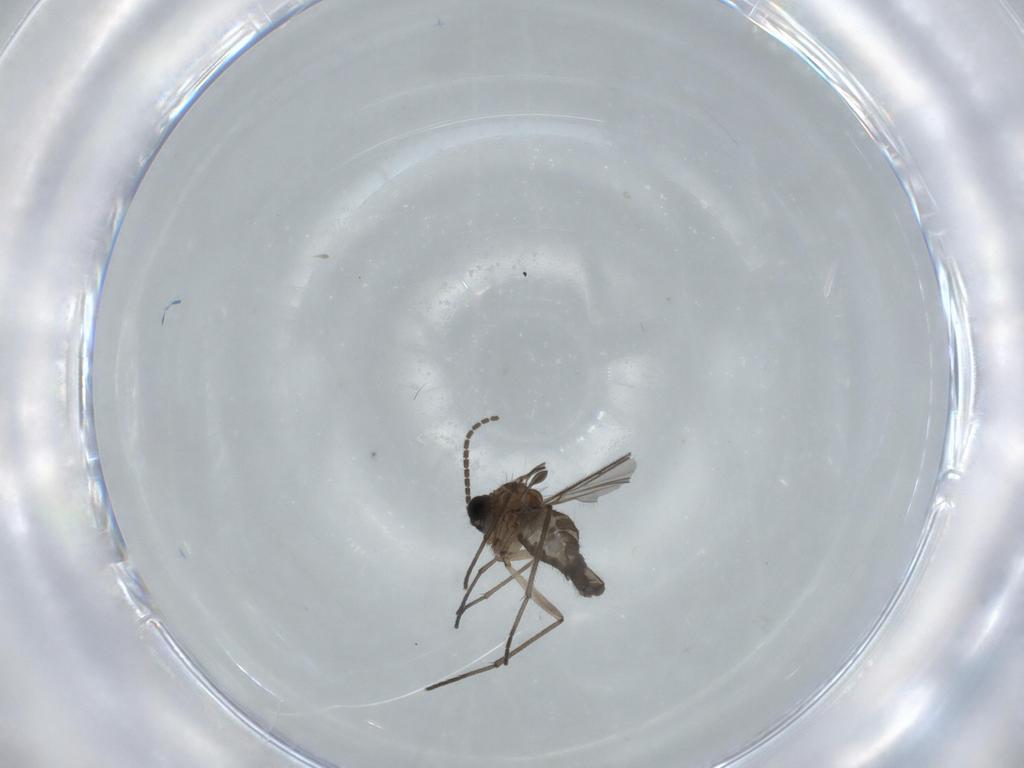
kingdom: Animalia
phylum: Arthropoda
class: Insecta
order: Diptera
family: Sciaridae
